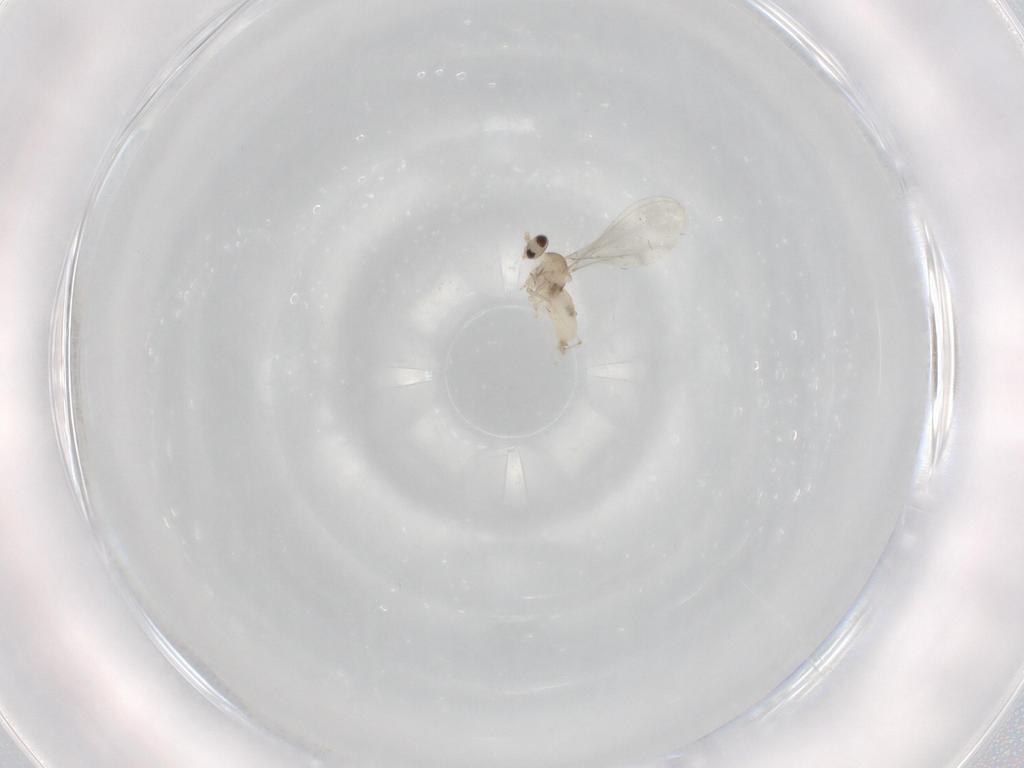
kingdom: Animalia
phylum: Arthropoda
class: Insecta
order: Diptera
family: Cecidomyiidae
